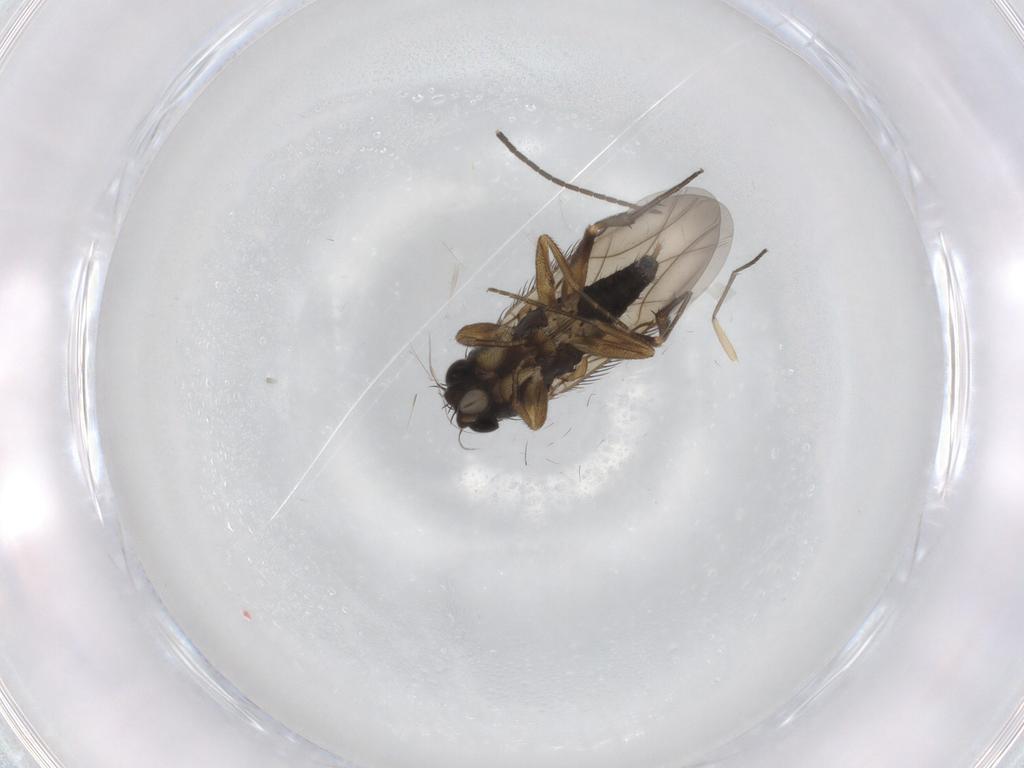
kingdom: Animalia
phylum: Arthropoda
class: Insecta
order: Diptera
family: Phoridae
